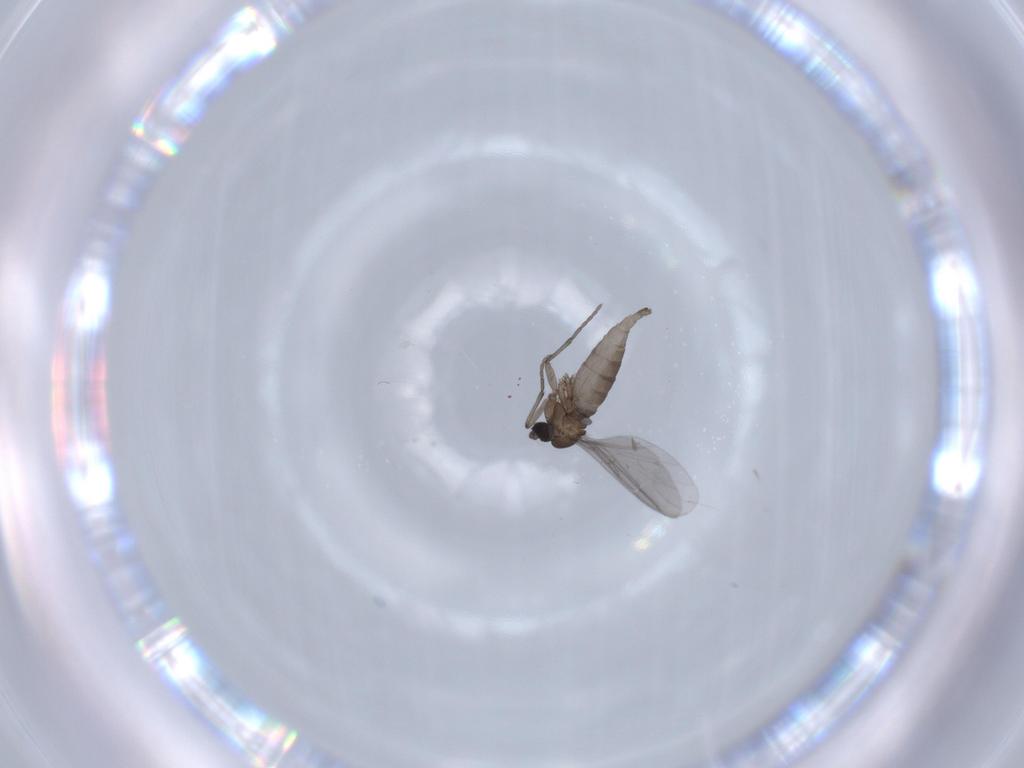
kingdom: Animalia
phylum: Arthropoda
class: Insecta
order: Diptera
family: Sciaridae
